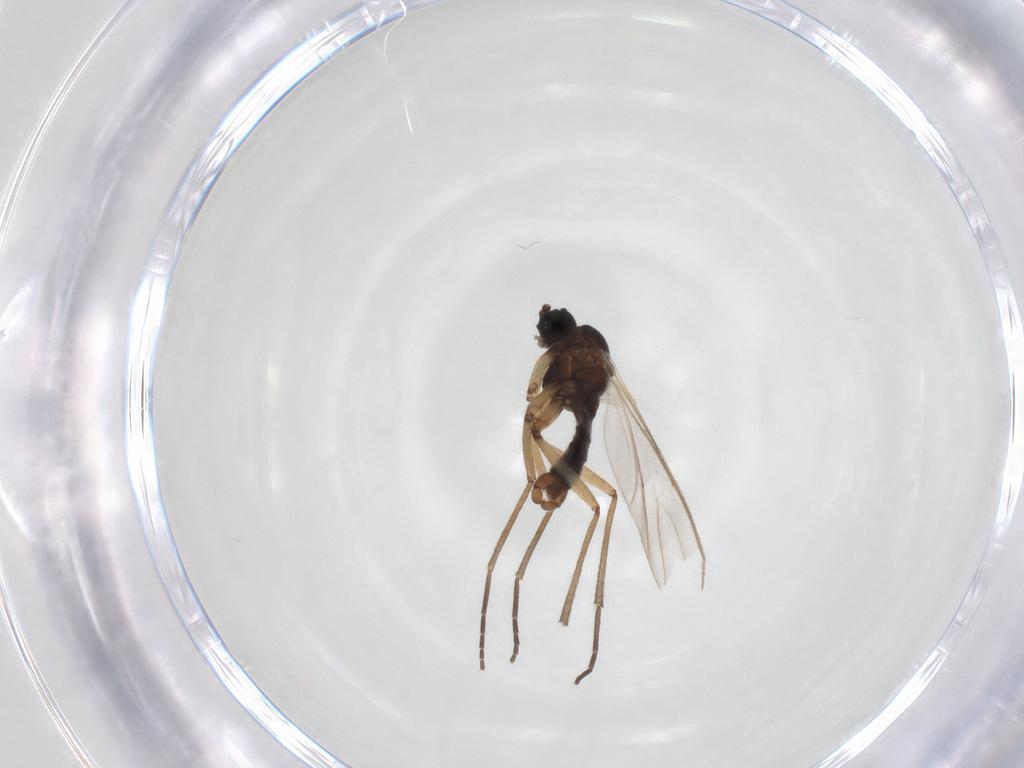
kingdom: Animalia
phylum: Arthropoda
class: Insecta
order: Diptera
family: Sciaridae
